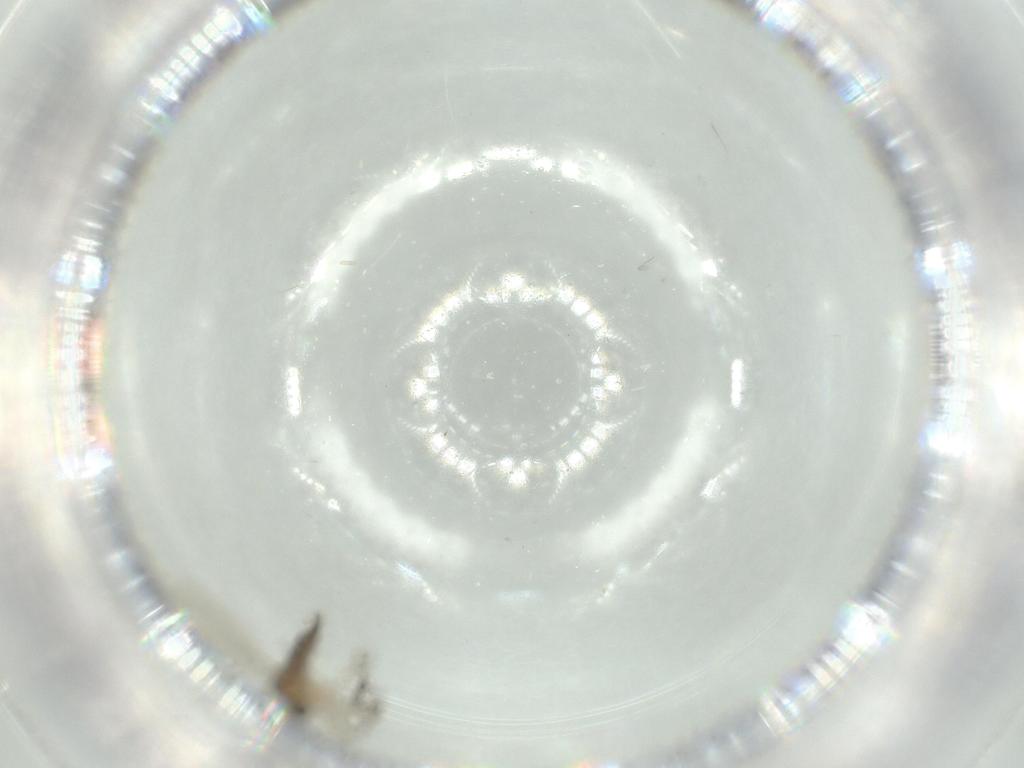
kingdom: Animalia
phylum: Arthropoda
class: Insecta
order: Diptera
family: Sciaridae
